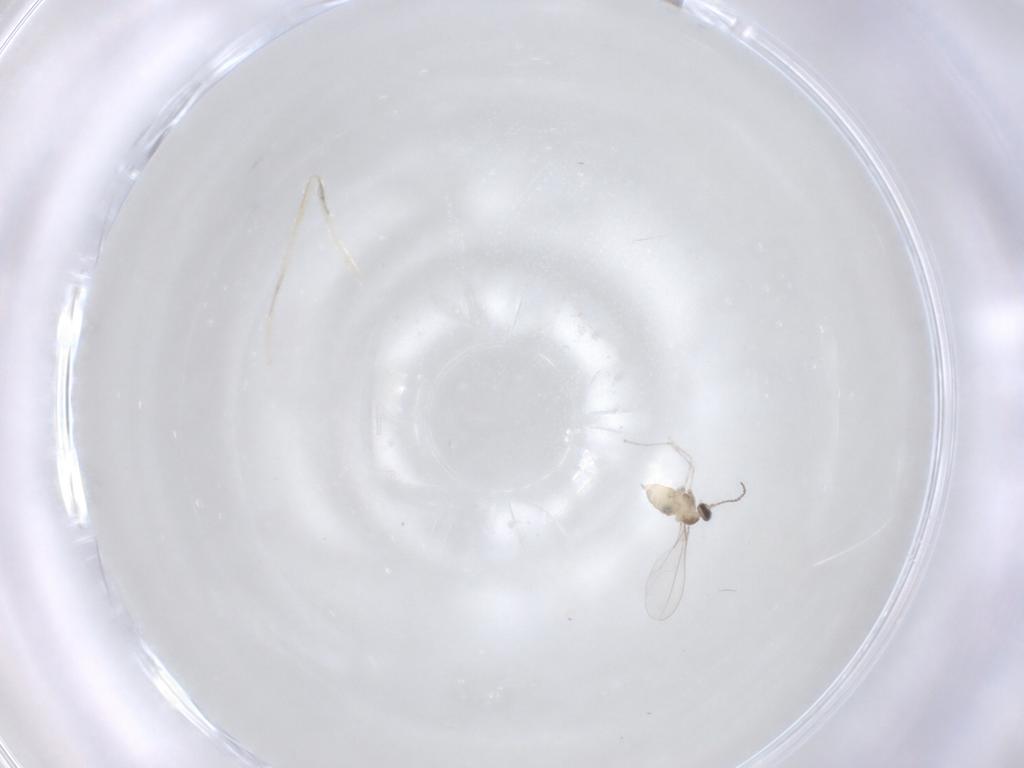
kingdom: Animalia
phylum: Arthropoda
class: Insecta
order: Diptera
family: Cecidomyiidae
